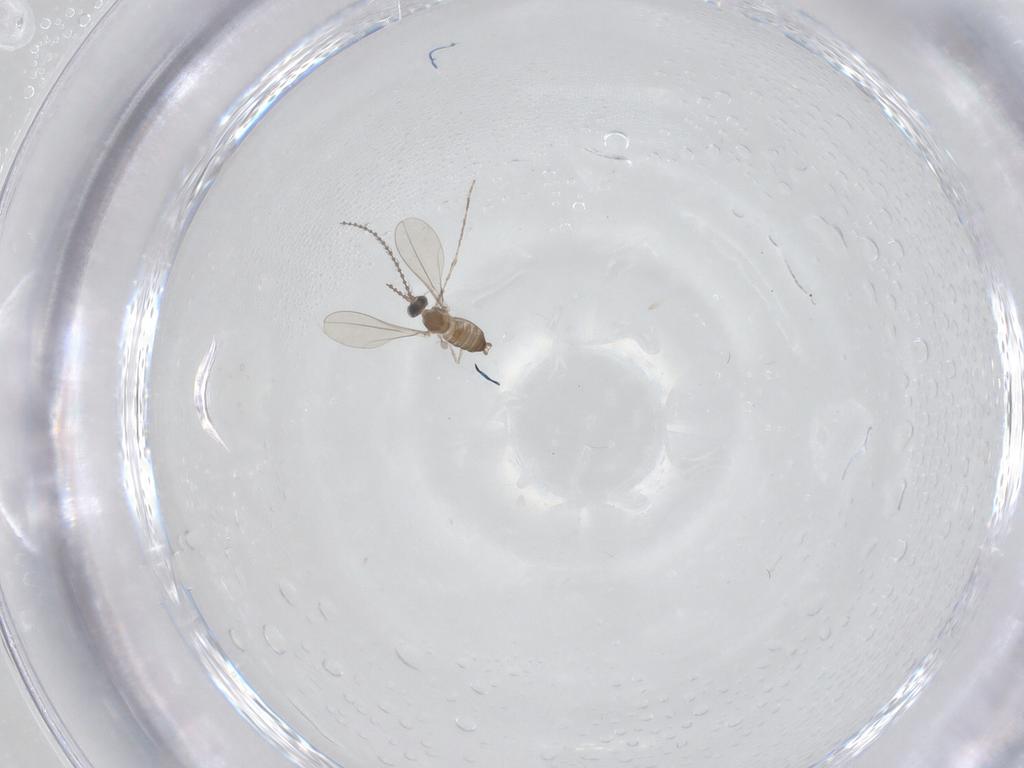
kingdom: Animalia
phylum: Arthropoda
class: Insecta
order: Diptera
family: Cecidomyiidae
